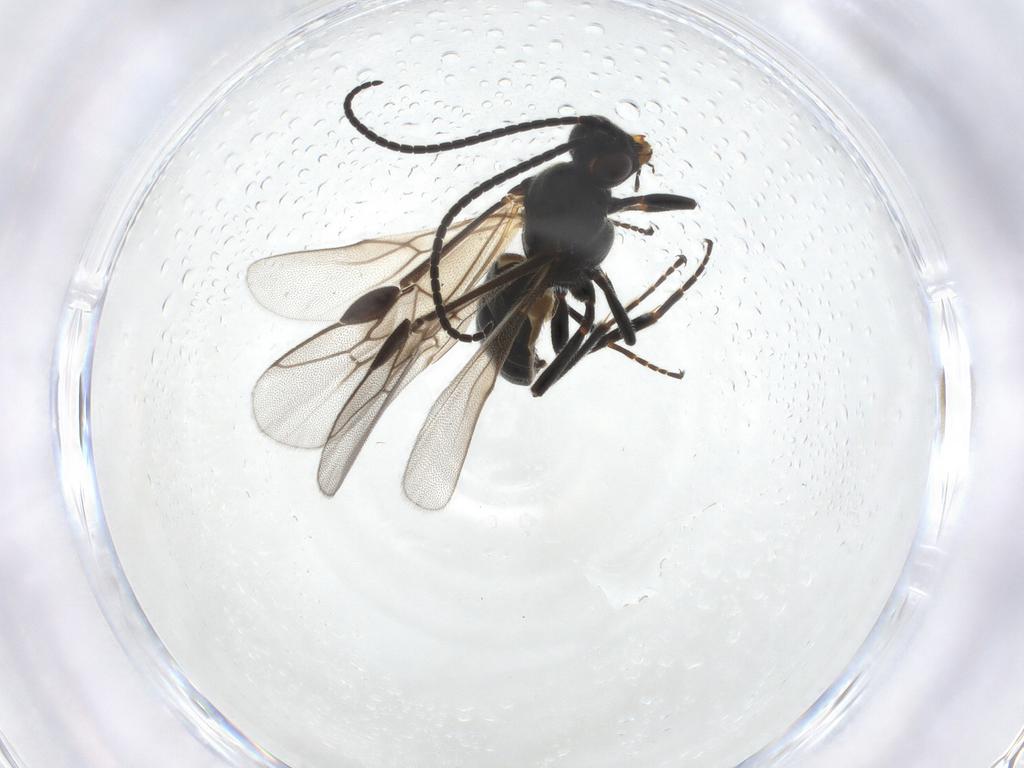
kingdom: Animalia
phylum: Arthropoda
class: Insecta
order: Hymenoptera
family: Braconidae
